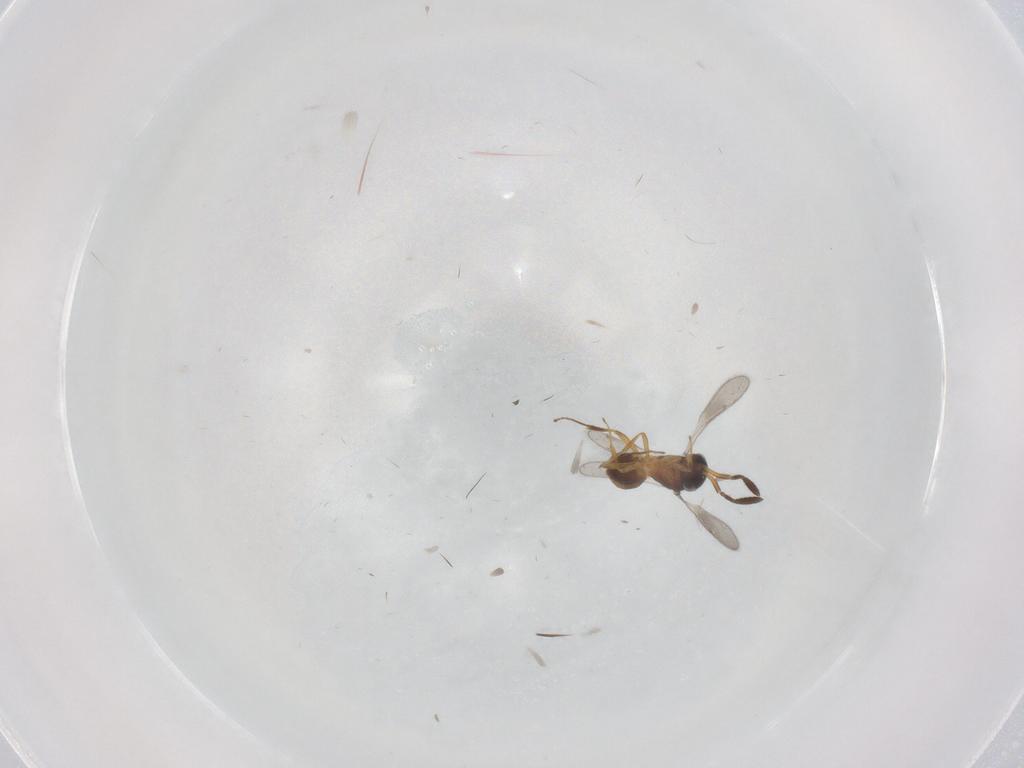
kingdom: Animalia
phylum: Arthropoda
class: Insecta
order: Hymenoptera
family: Scelionidae
